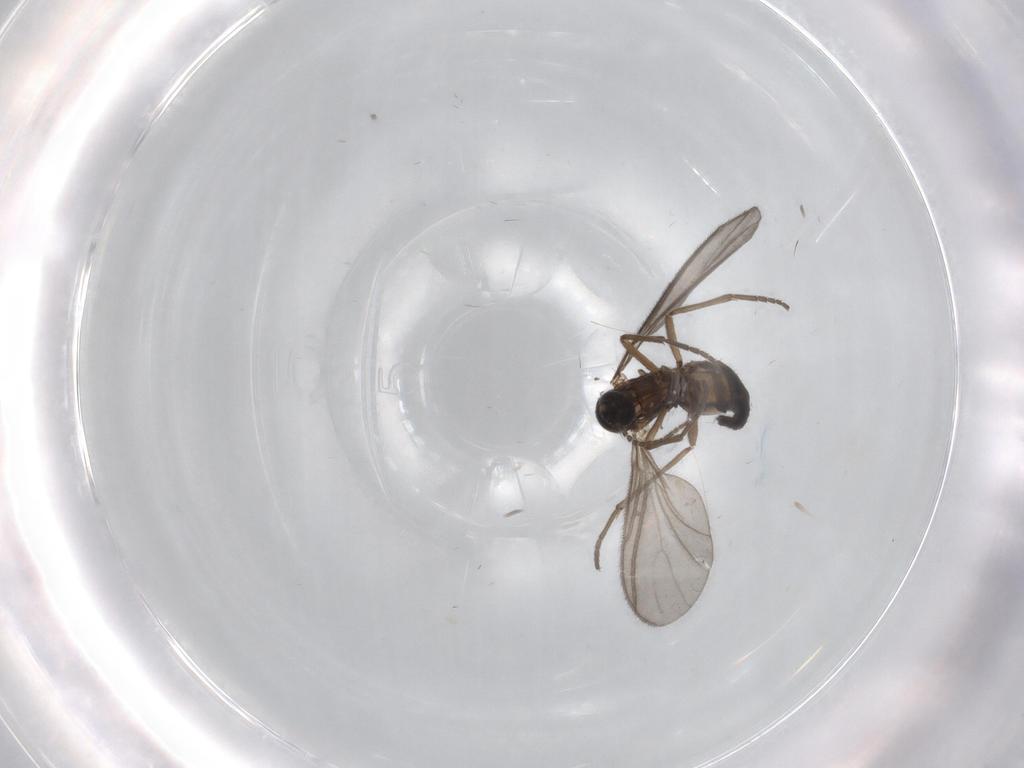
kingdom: Animalia
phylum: Arthropoda
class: Insecta
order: Diptera
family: Sciaridae
